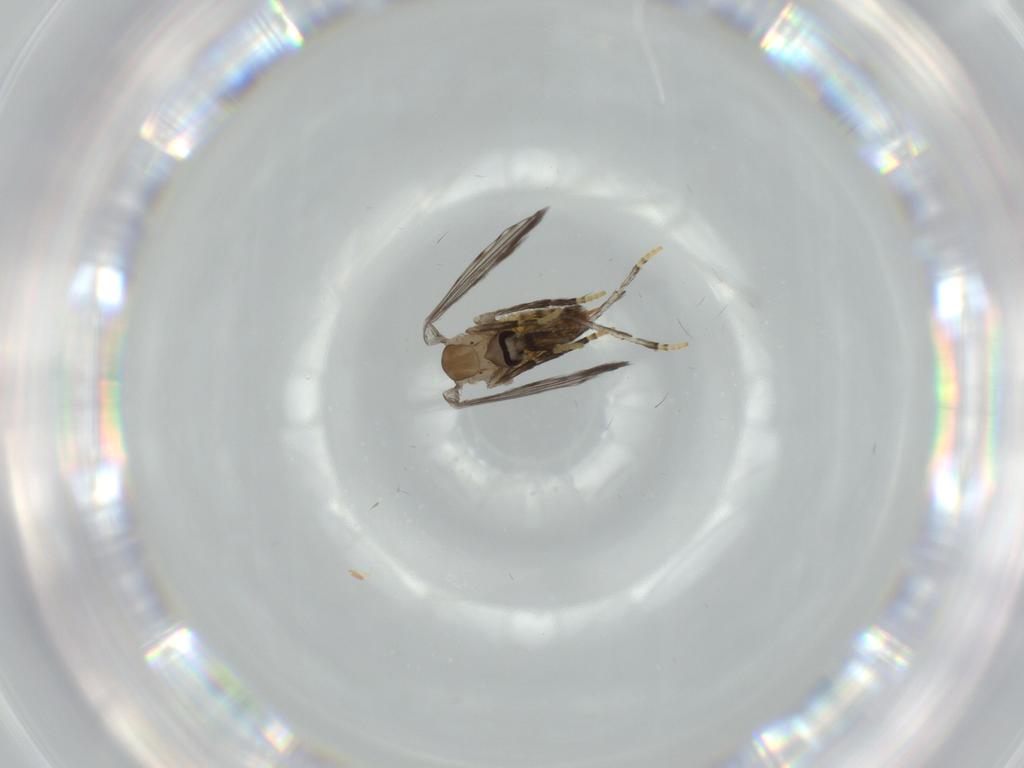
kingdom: Animalia
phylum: Arthropoda
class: Insecta
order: Diptera
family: Psychodidae
